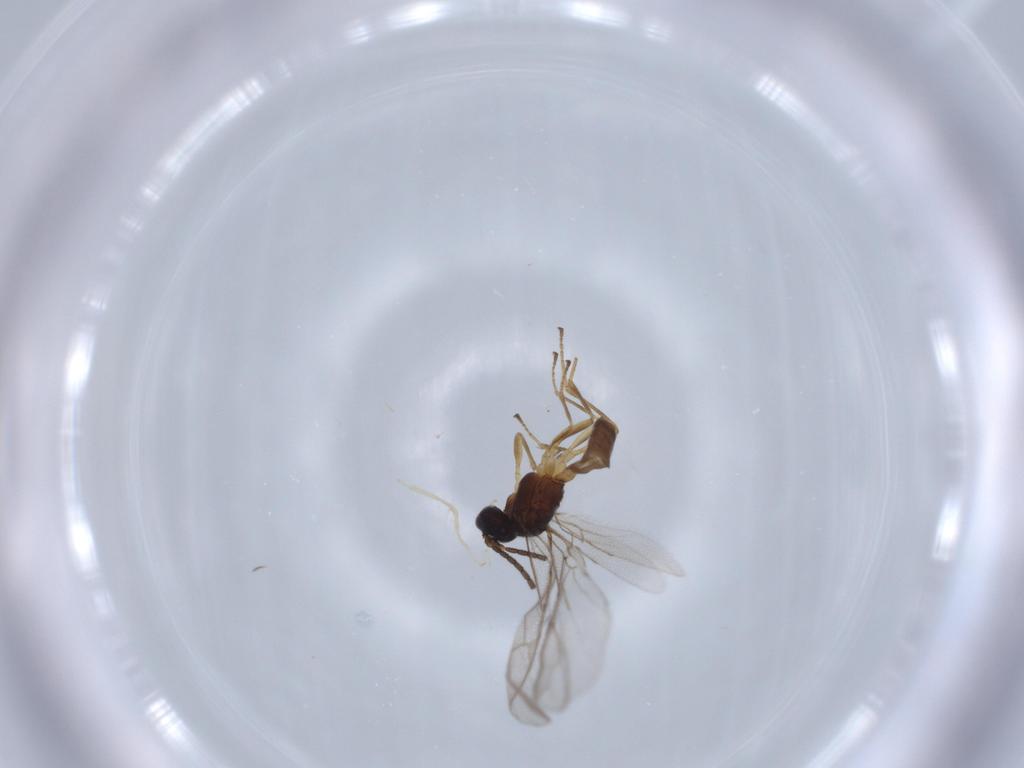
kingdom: Animalia
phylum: Arthropoda
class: Insecta
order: Hymenoptera
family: Braconidae
